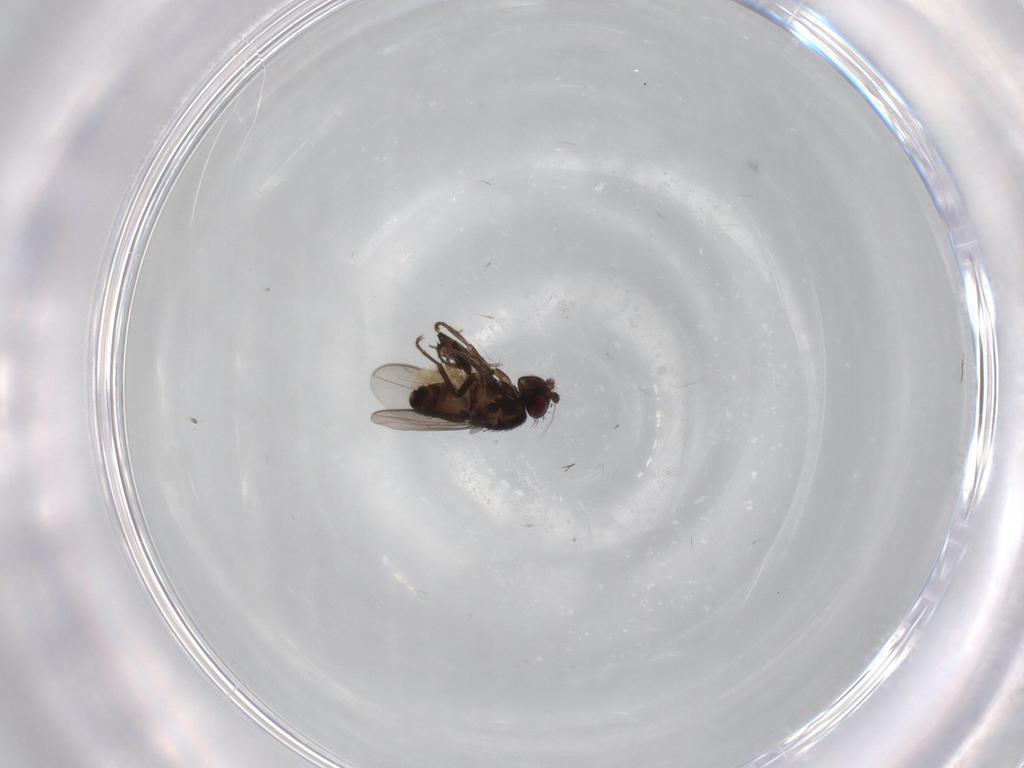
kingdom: Animalia
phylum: Arthropoda
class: Insecta
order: Diptera
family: Sphaeroceridae
